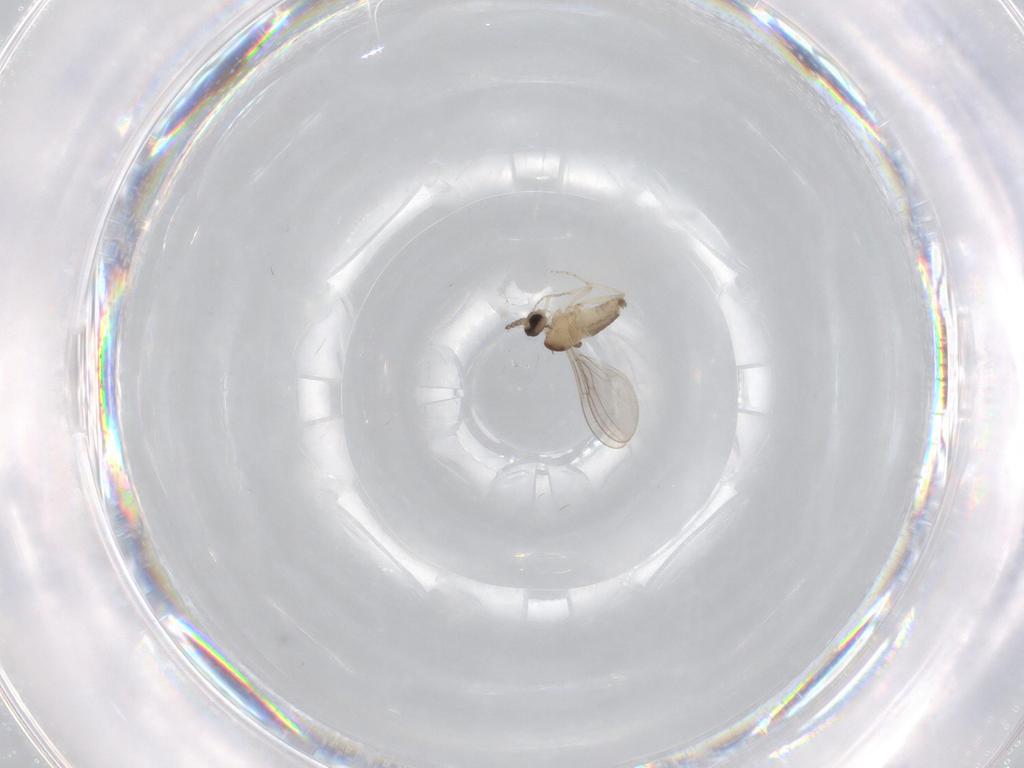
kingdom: Animalia
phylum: Arthropoda
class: Insecta
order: Diptera
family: Cecidomyiidae
